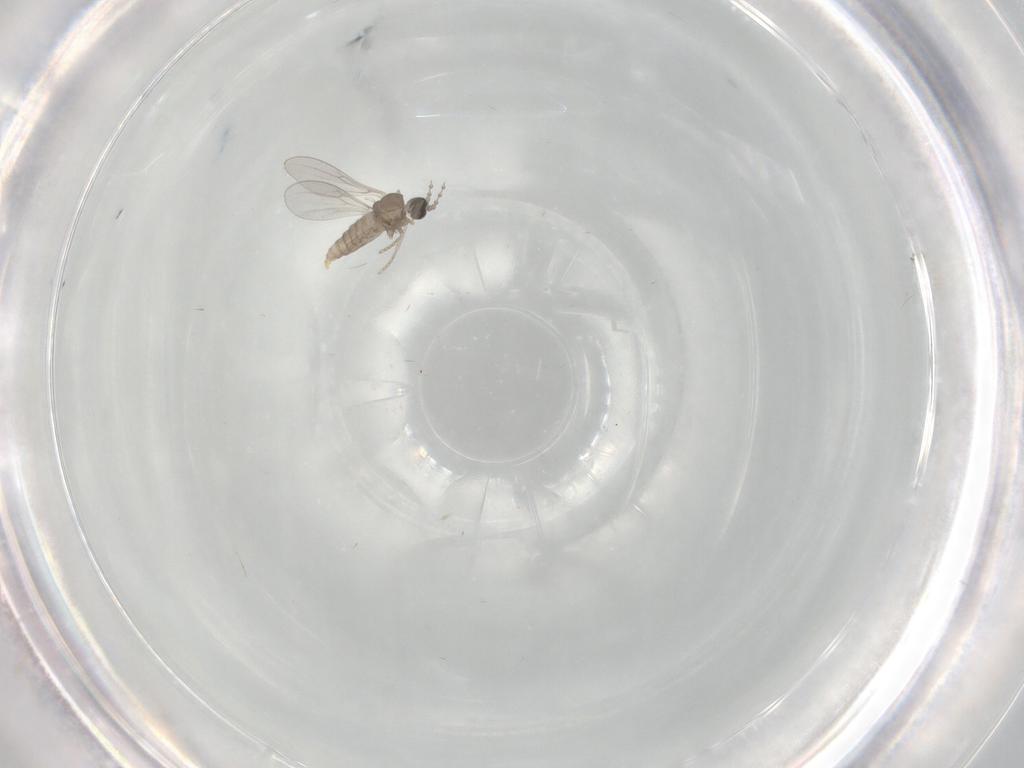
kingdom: Animalia
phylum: Arthropoda
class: Insecta
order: Diptera
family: Cecidomyiidae
